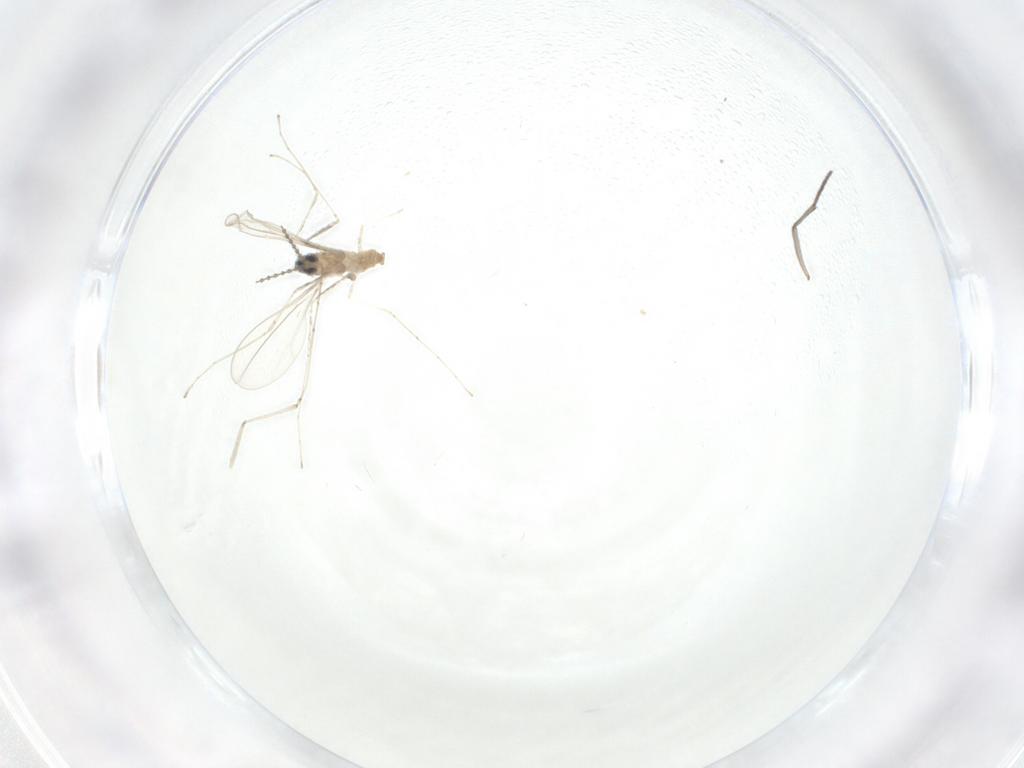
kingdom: Animalia
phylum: Arthropoda
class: Insecta
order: Diptera
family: Cecidomyiidae
